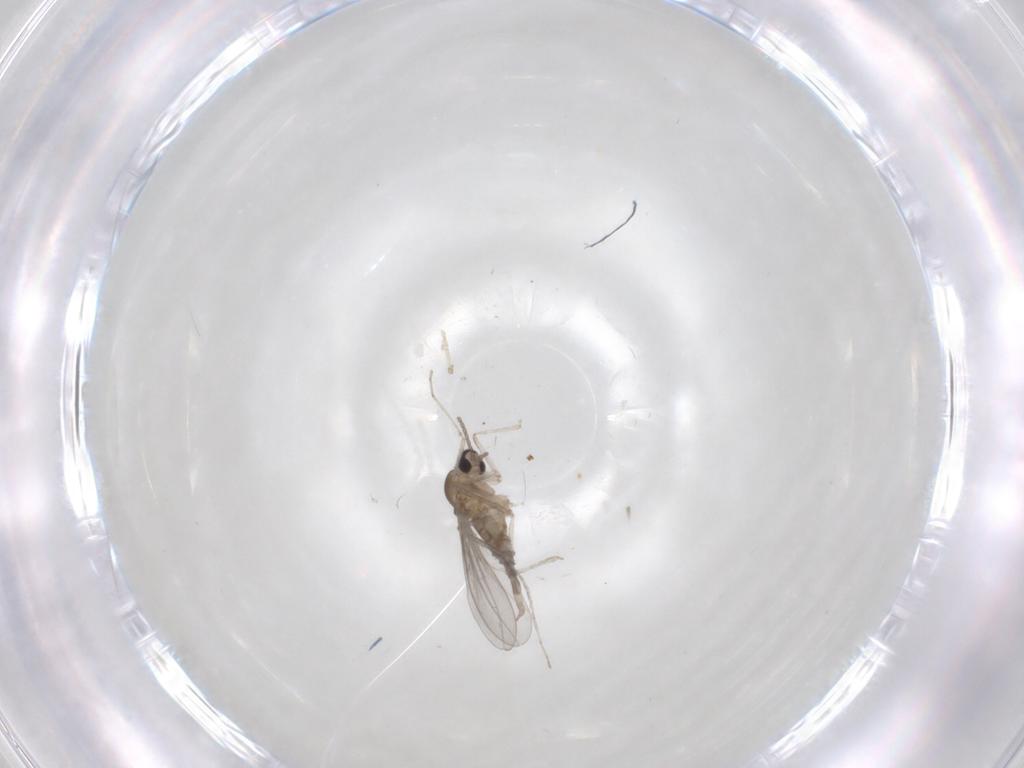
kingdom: Animalia
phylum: Arthropoda
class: Insecta
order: Diptera
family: Cecidomyiidae
